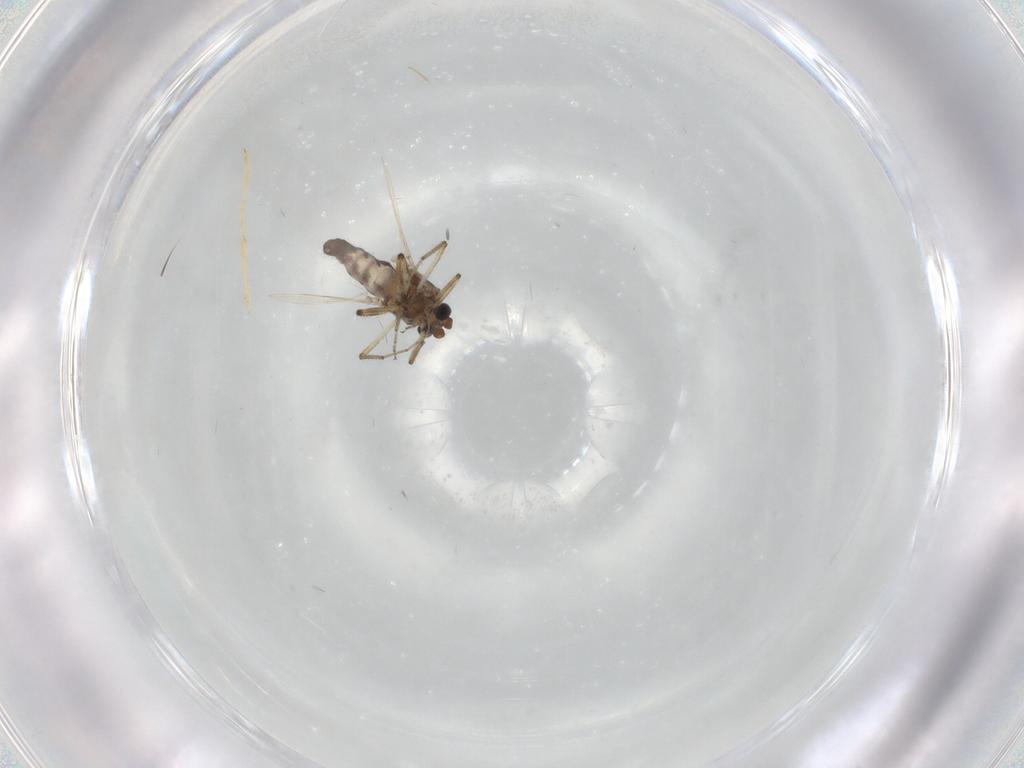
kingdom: Animalia
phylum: Arthropoda
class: Insecta
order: Diptera
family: Chironomidae
